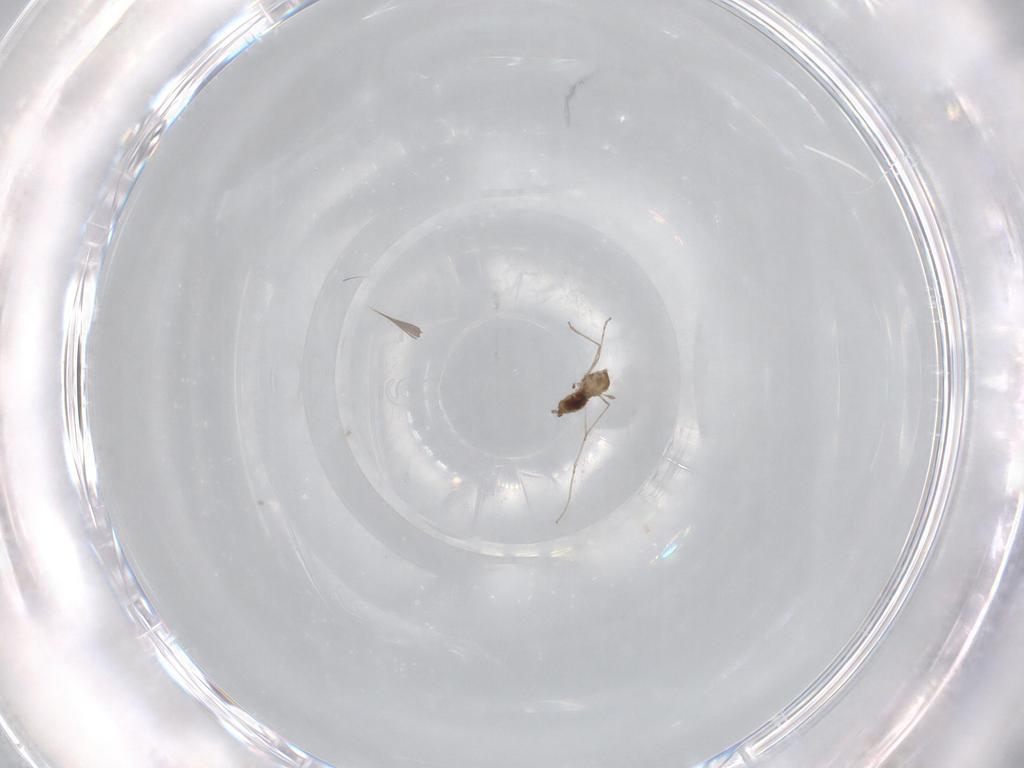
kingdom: Animalia
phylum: Arthropoda
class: Insecta
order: Diptera
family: Cecidomyiidae
